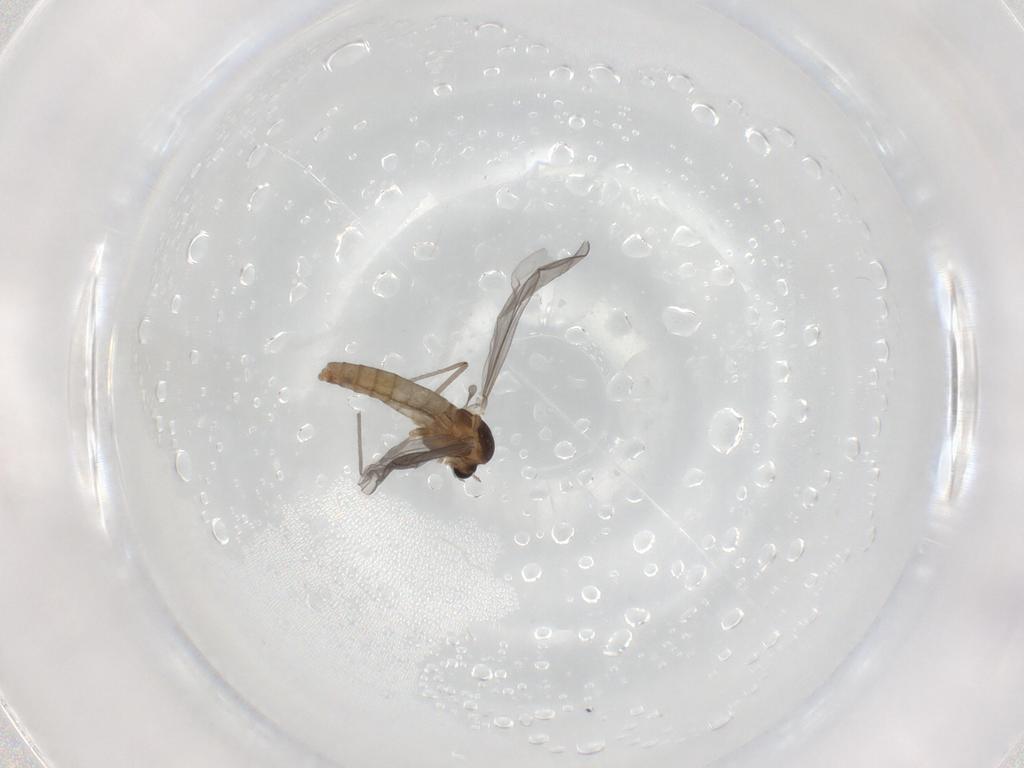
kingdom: Animalia
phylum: Arthropoda
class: Insecta
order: Diptera
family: Chironomidae
